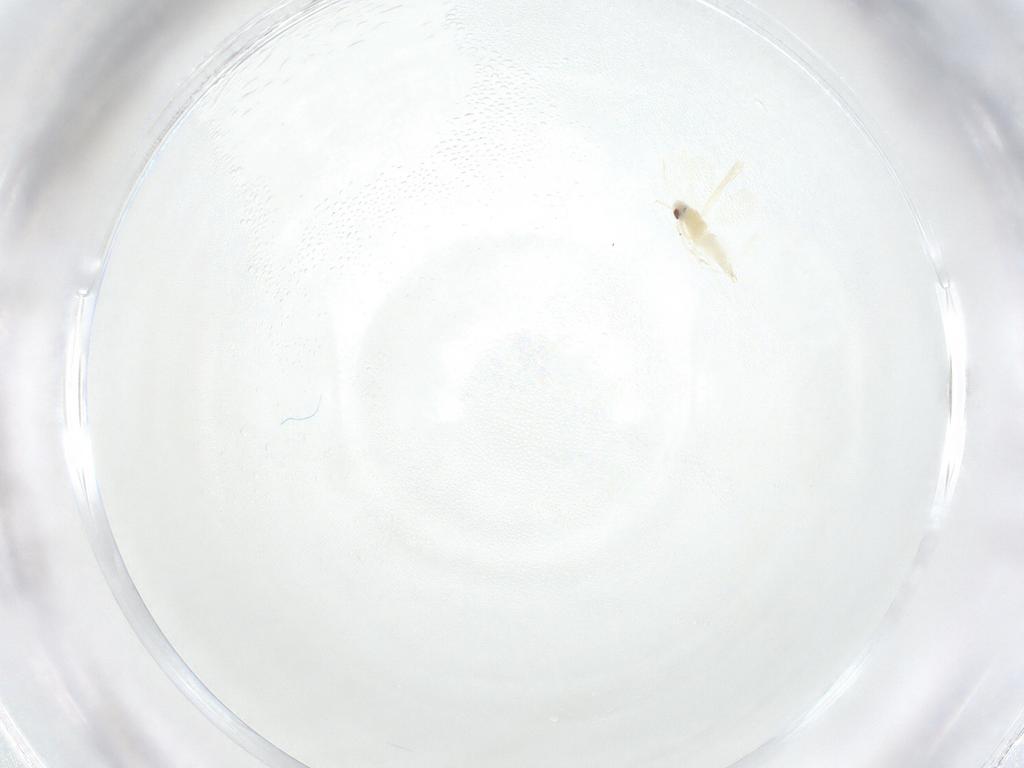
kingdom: Animalia
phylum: Arthropoda
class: Insecta
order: Hemiptera
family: Aleyrodidae
